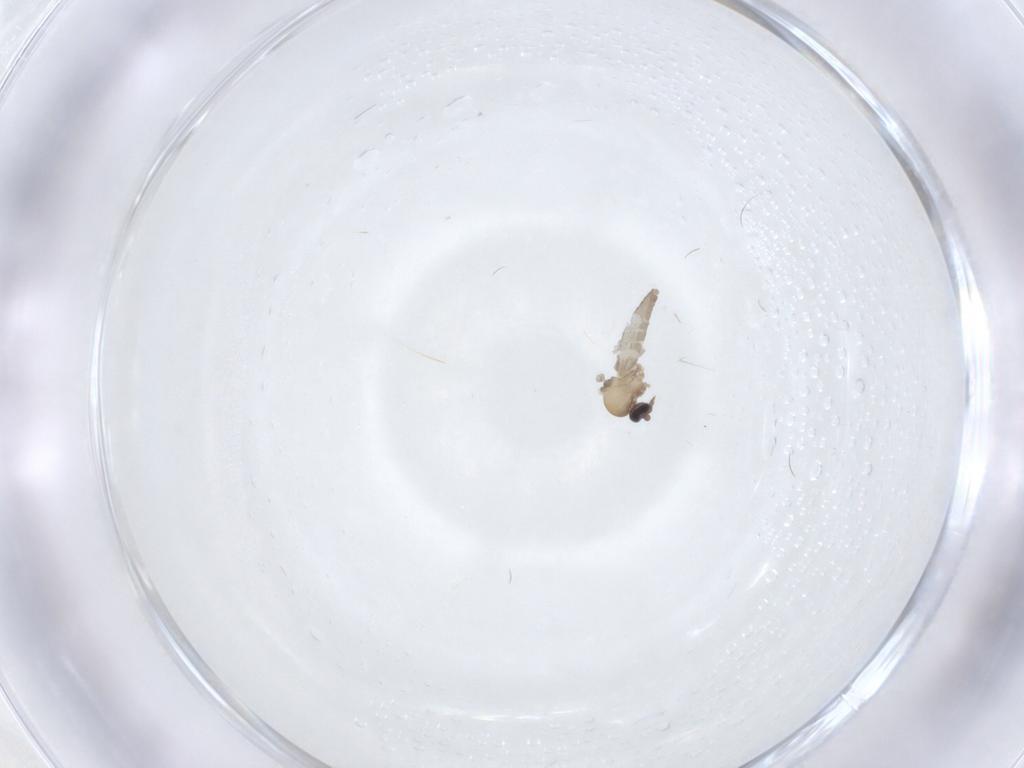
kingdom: Animalia
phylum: Arthropoda
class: Insecta
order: Diptera
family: Ceratopogonidae
